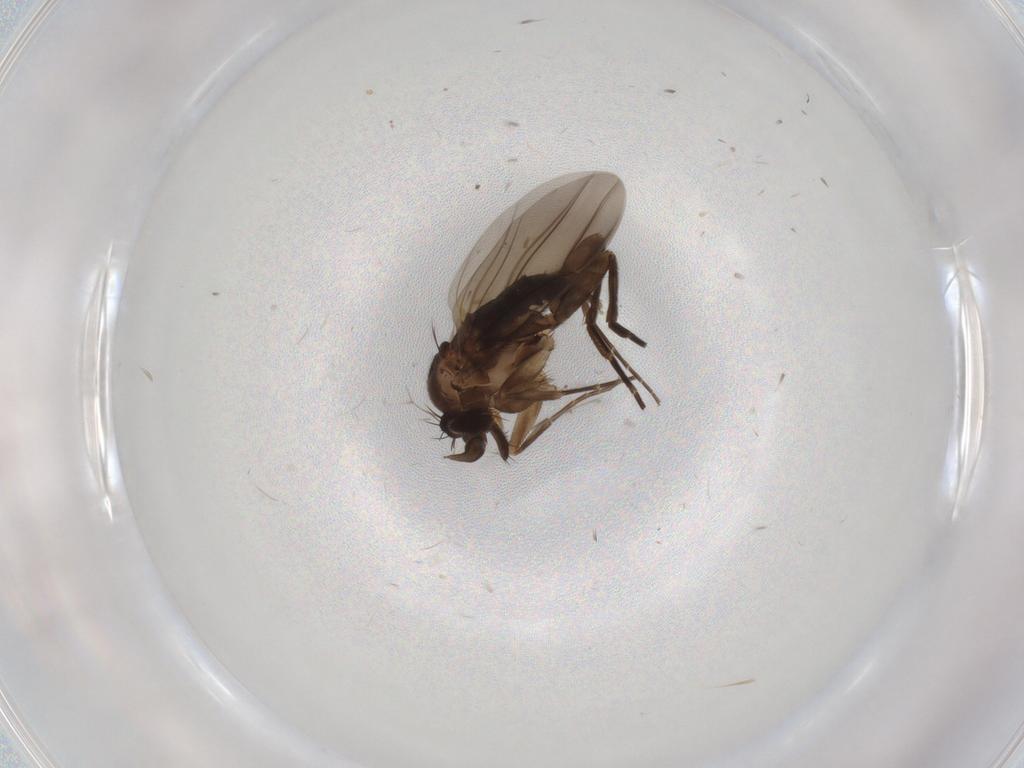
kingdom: Animalia
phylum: Arthropoda
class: Insecta
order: Diptera
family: Phoridae
